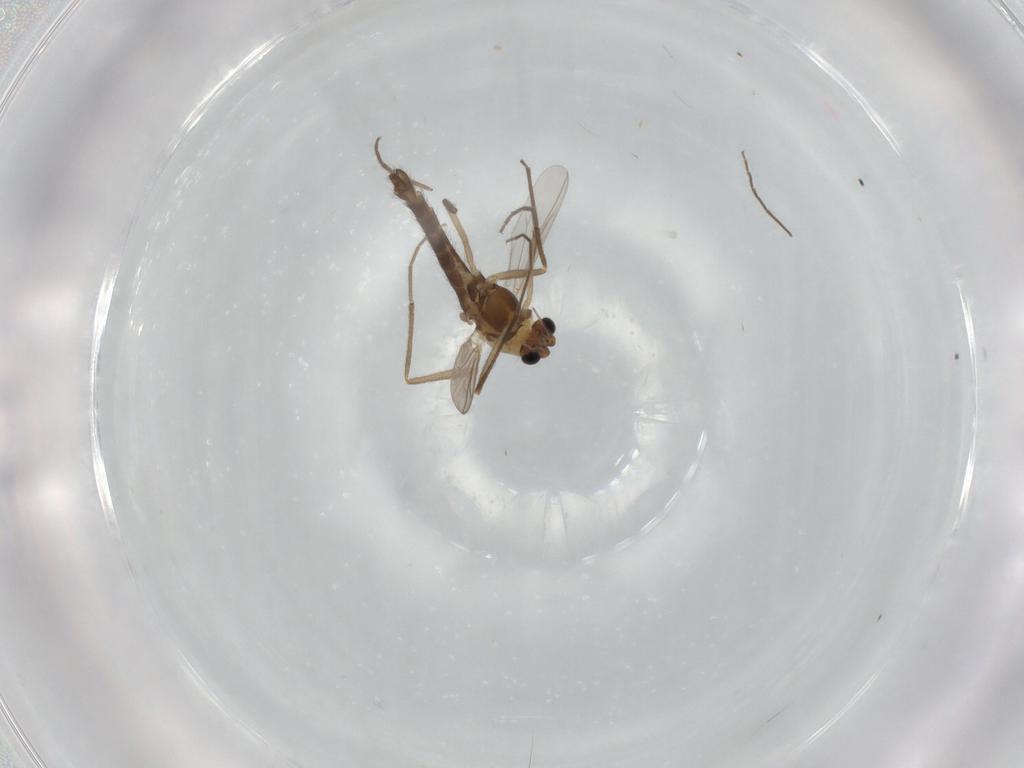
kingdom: Animalia
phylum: Arthropoda
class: Insecta
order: Diptera
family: Chironomidae
